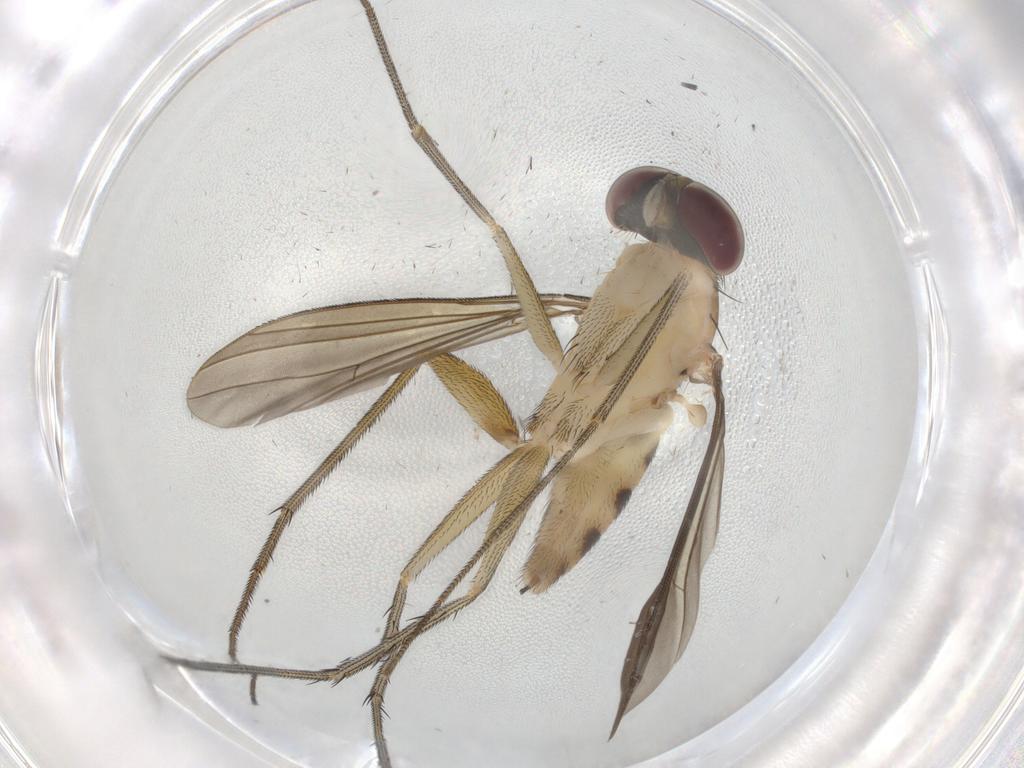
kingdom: Animalia
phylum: Arthropoda
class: Insecta
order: Diptera
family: Dolichopodidae
